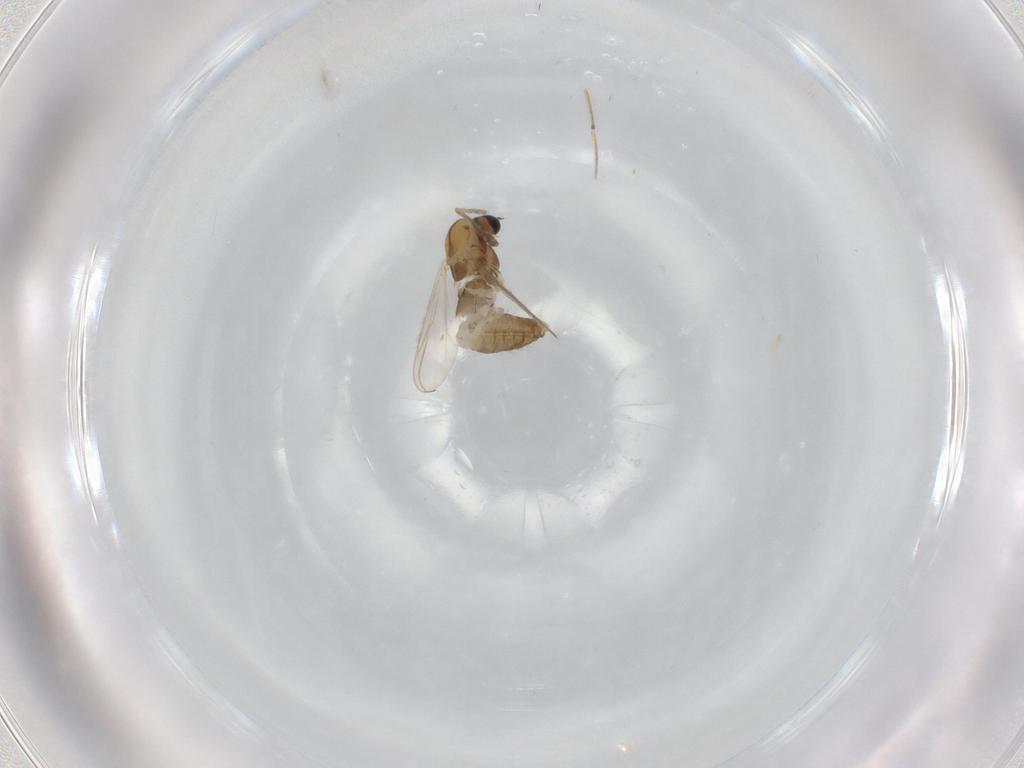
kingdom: Animalia
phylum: Arthropoda
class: Insecta
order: Diptera
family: Chironomidae
